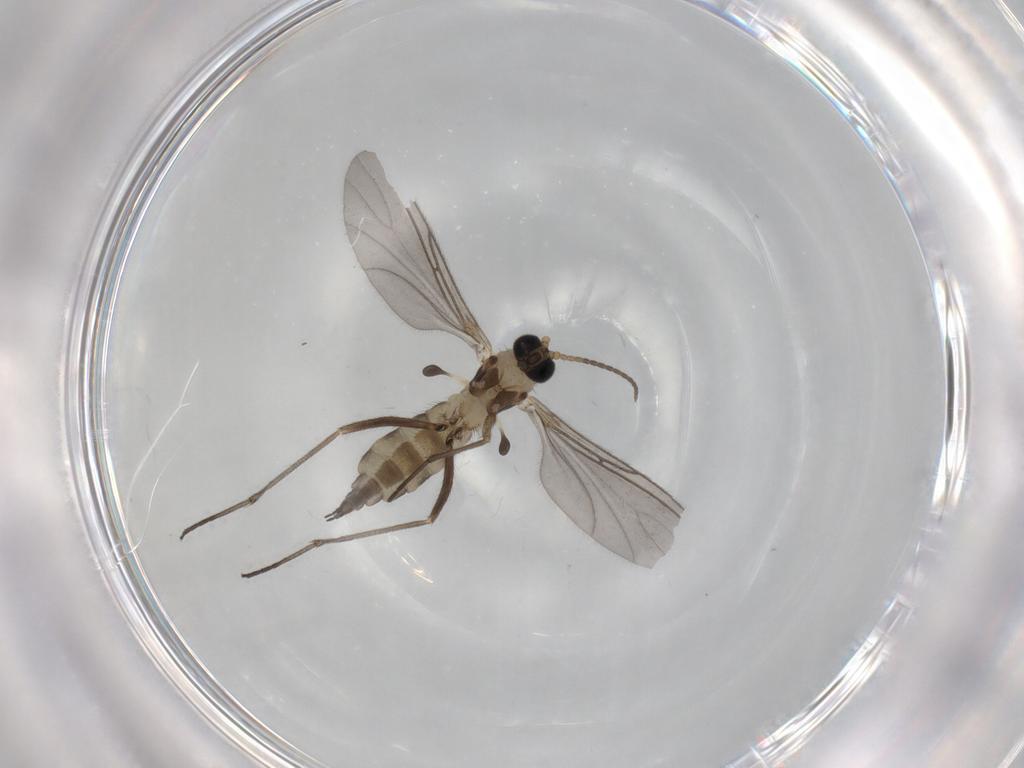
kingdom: Animalia
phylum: Arthropoda
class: Insecta
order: Diptera
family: Sciaridae
